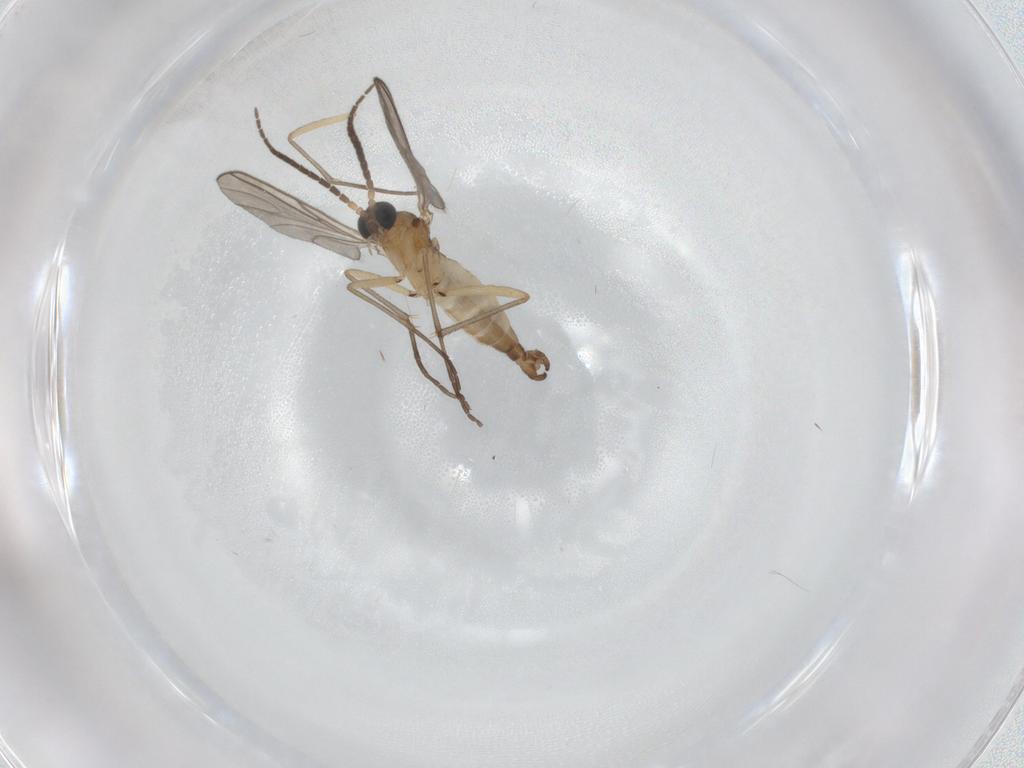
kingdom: Animalia
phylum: Arthropoda
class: Insecta
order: Diptera
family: Sciaridae
